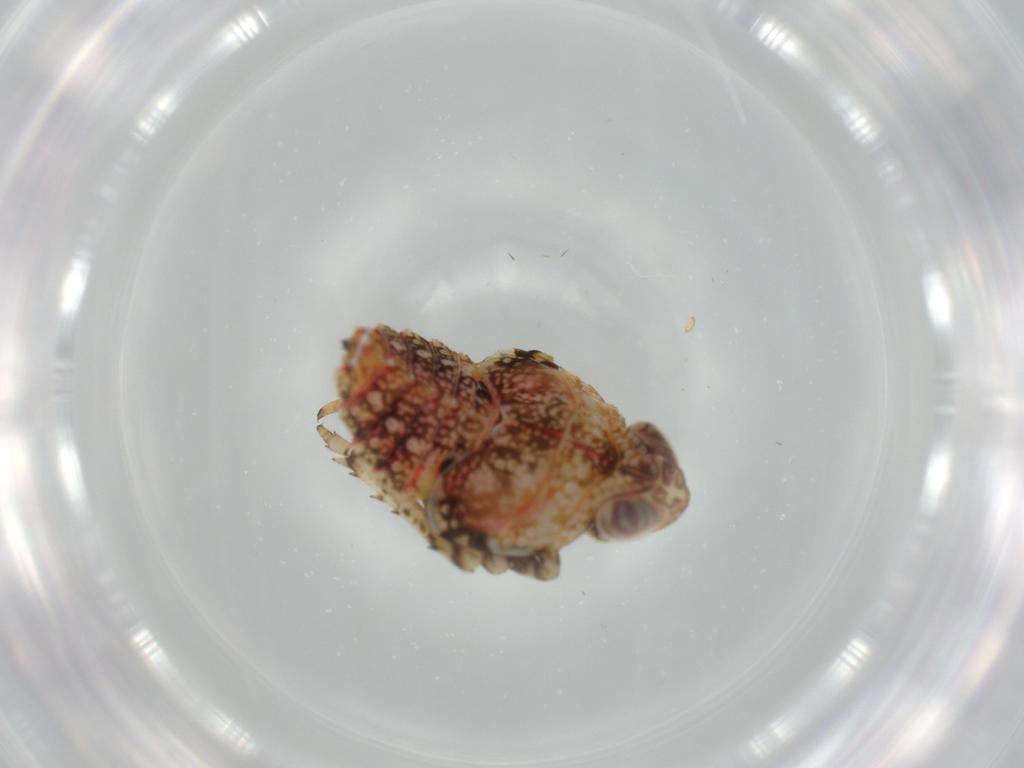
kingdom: Animalia
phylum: Arthropoda
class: Insecta
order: Hemiptera
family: Issidae
